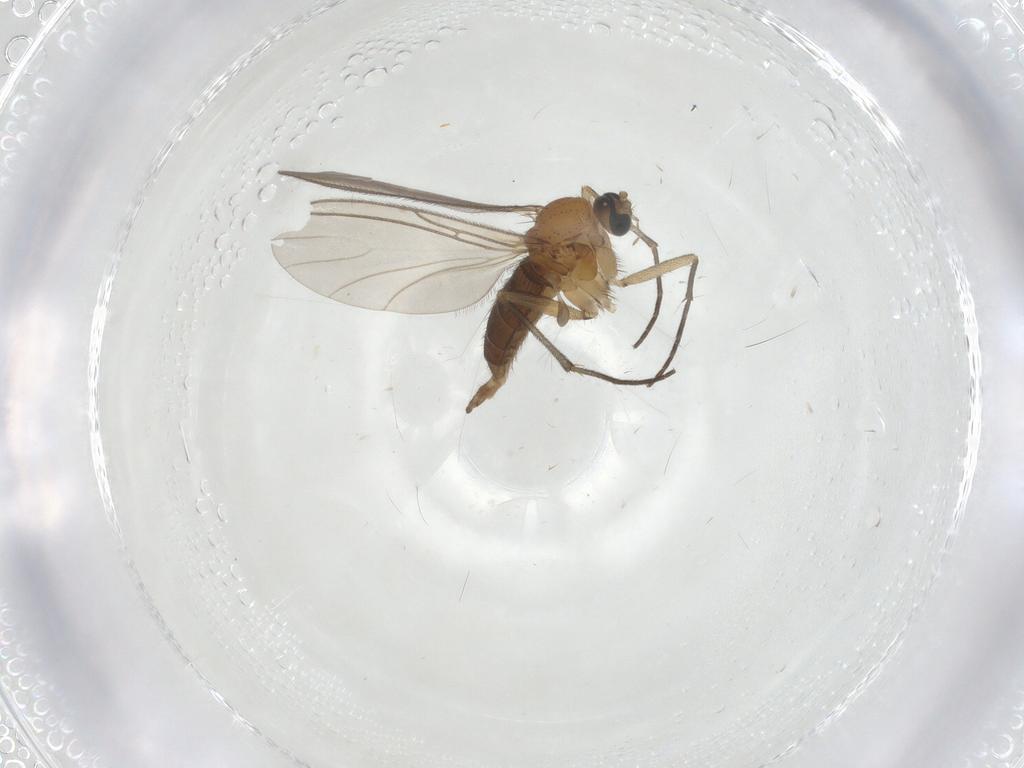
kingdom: Animalia
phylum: Arthropoda
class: Insecta
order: Diptera
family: Sciaridae
